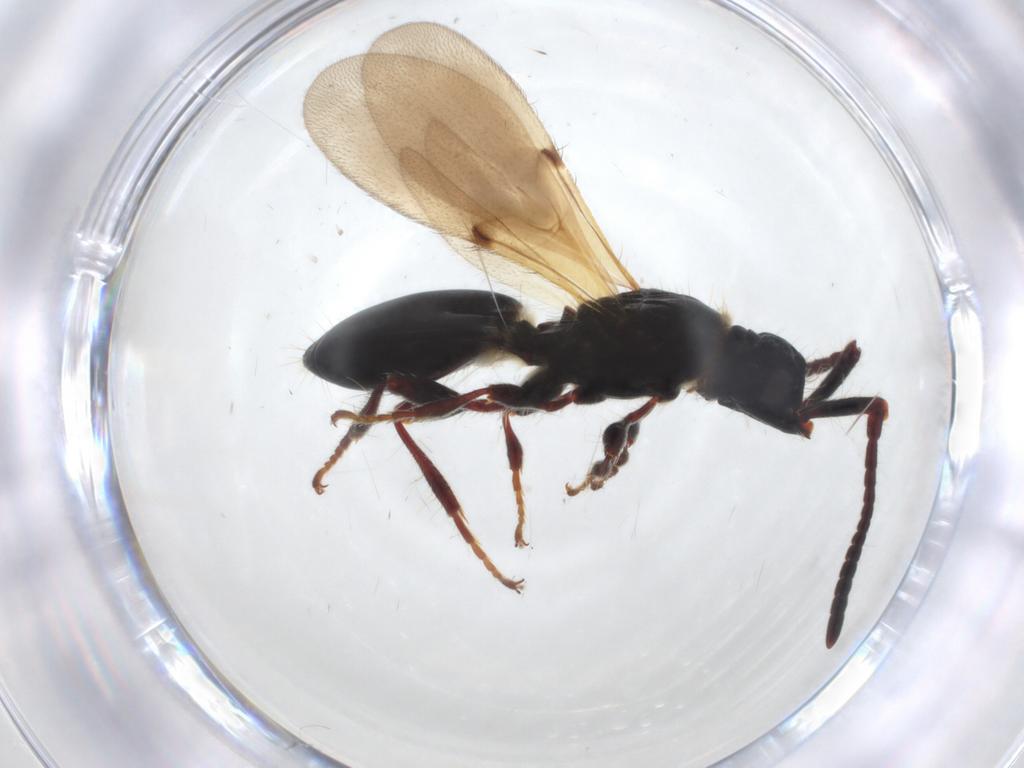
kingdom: Animalia
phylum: Arthropoda
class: Insecta
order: Hymenoptera
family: Diapriidae
